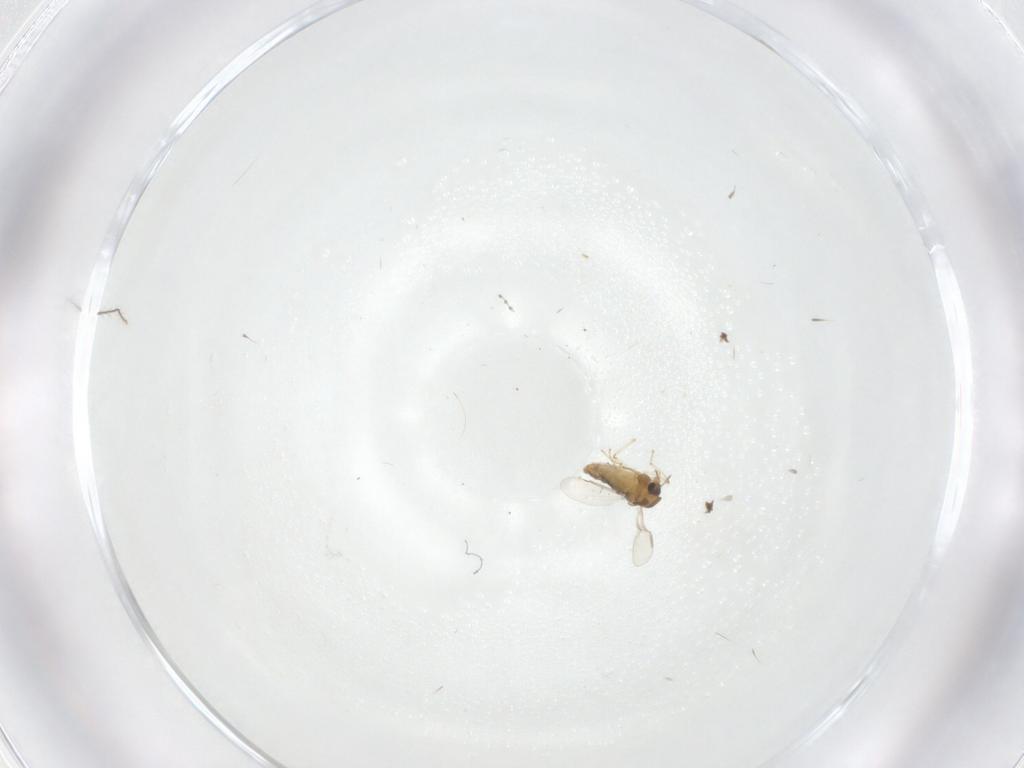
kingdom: Animalia
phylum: Arthropoda
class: Insecta
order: Diptera
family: Chironomidae
